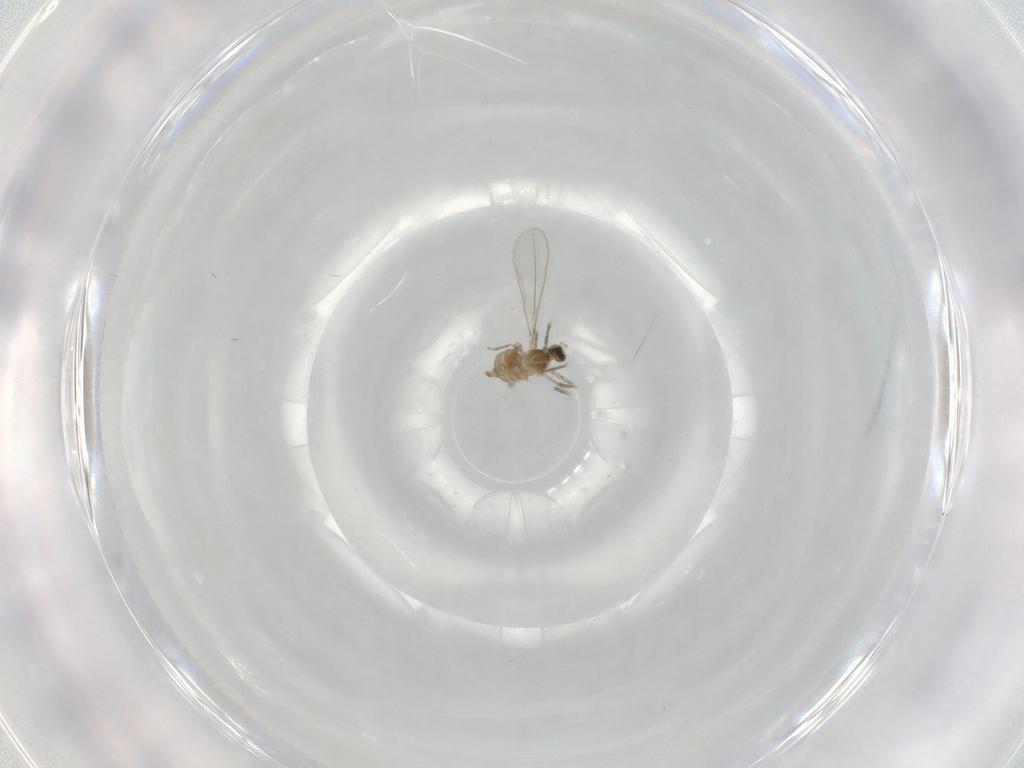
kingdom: Animalia
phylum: Arthropoda
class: Insecta
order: Diptera
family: Cecidomyiidae
